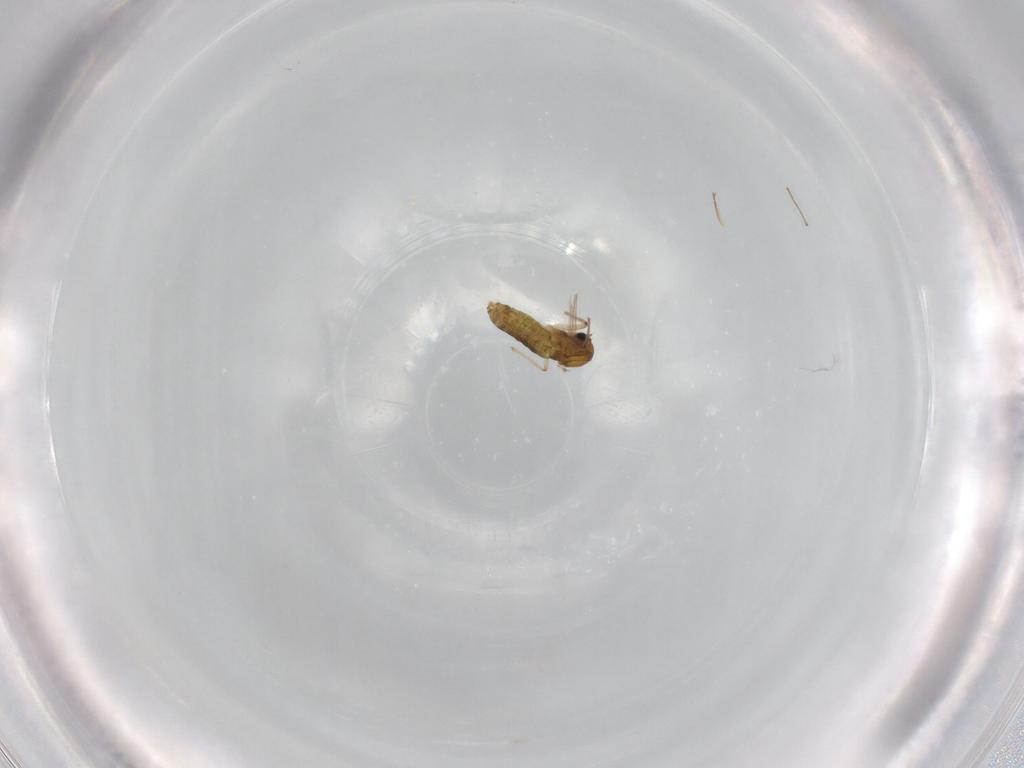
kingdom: Animalia
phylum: Arthropoda
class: Insecta
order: Diptera
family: Chironomidae
